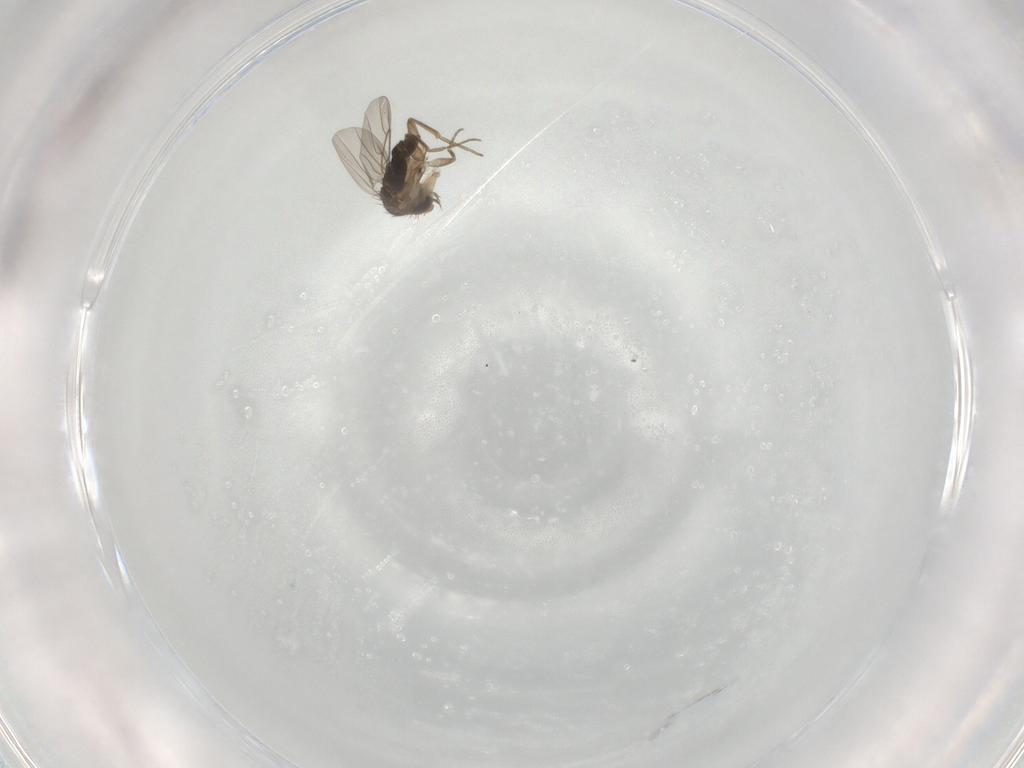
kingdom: Animalia
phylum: Arthropoda
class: Insecta
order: Diptera
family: Phoridae
